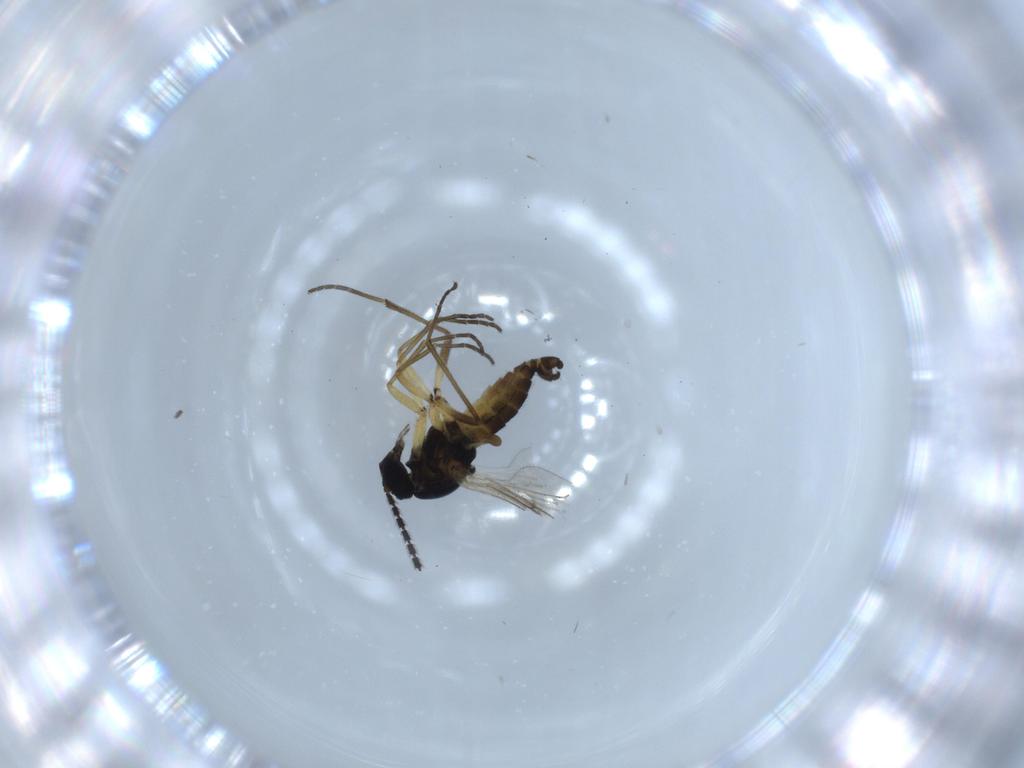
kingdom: Animalia
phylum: Arthropoda
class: Insecta
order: Diptera
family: Sciaridae
